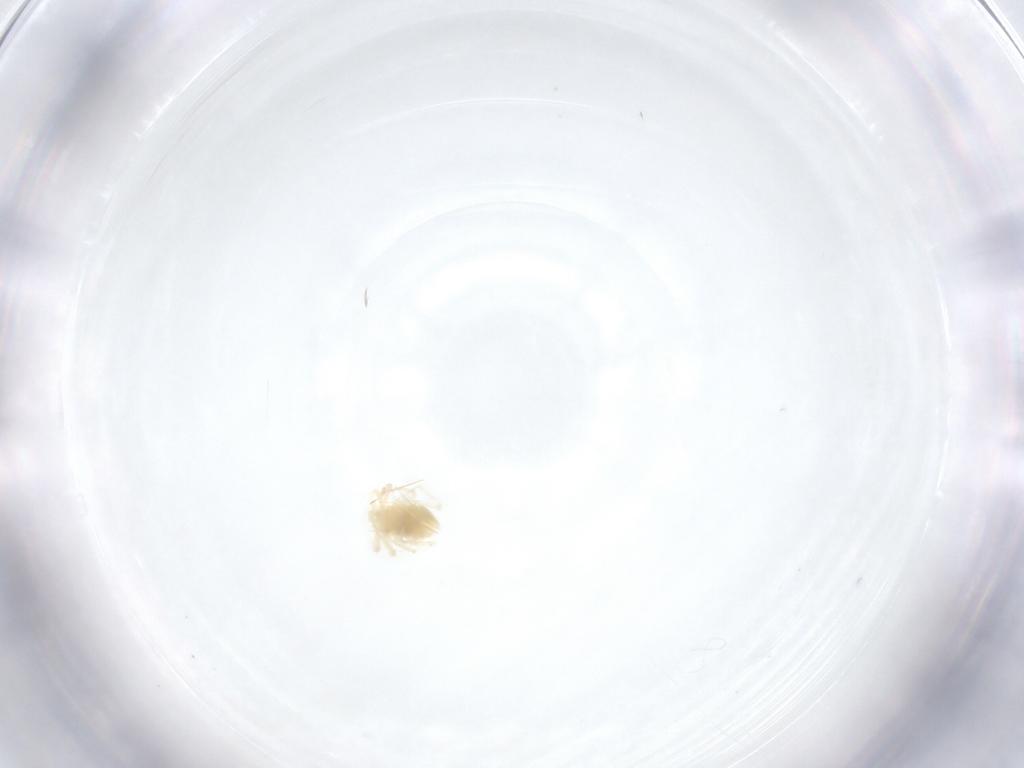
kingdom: Animalia
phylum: Arthropoda
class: Arachnida
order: Trombidiformes
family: Anystidae
